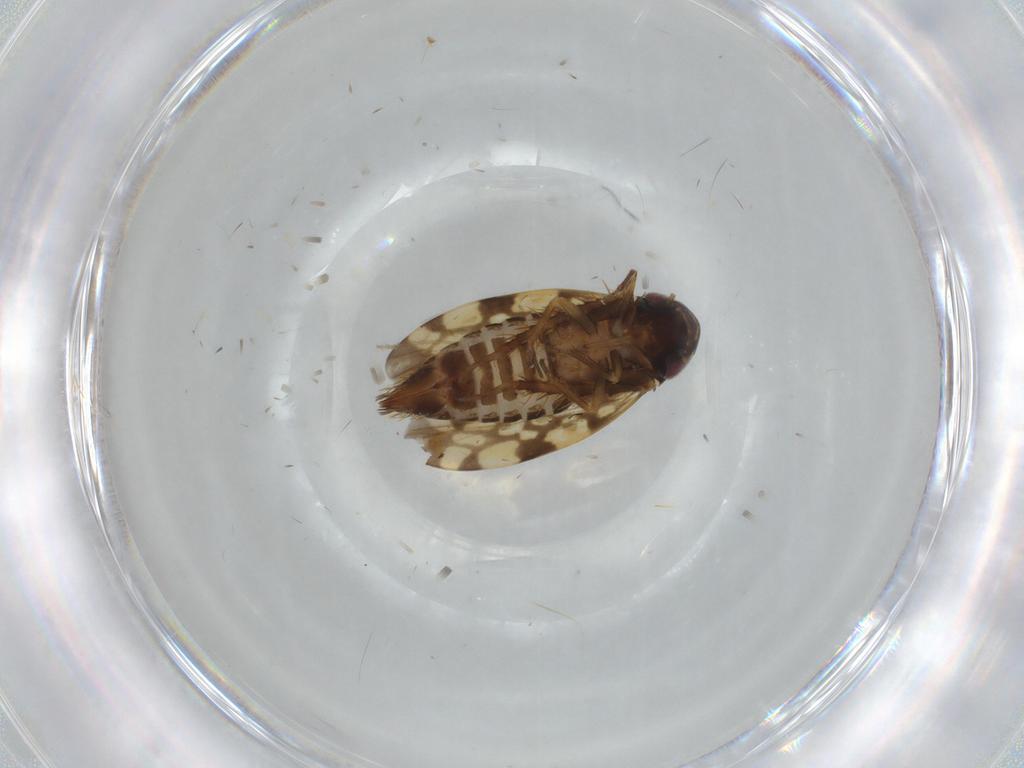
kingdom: Animalia
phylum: Arthropoda
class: Insecta
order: Hemiptera
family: Cicadellidae
